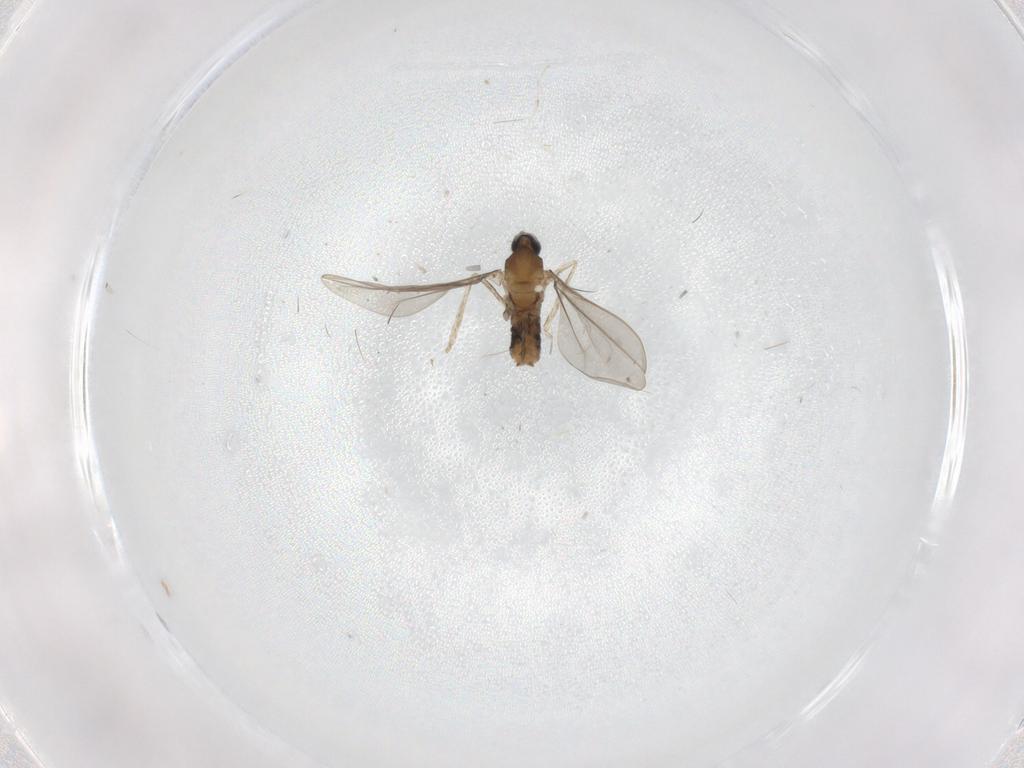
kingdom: Animalia
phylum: Arthropoda
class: Insecta
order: Diptera
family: Cecidomyiidae
